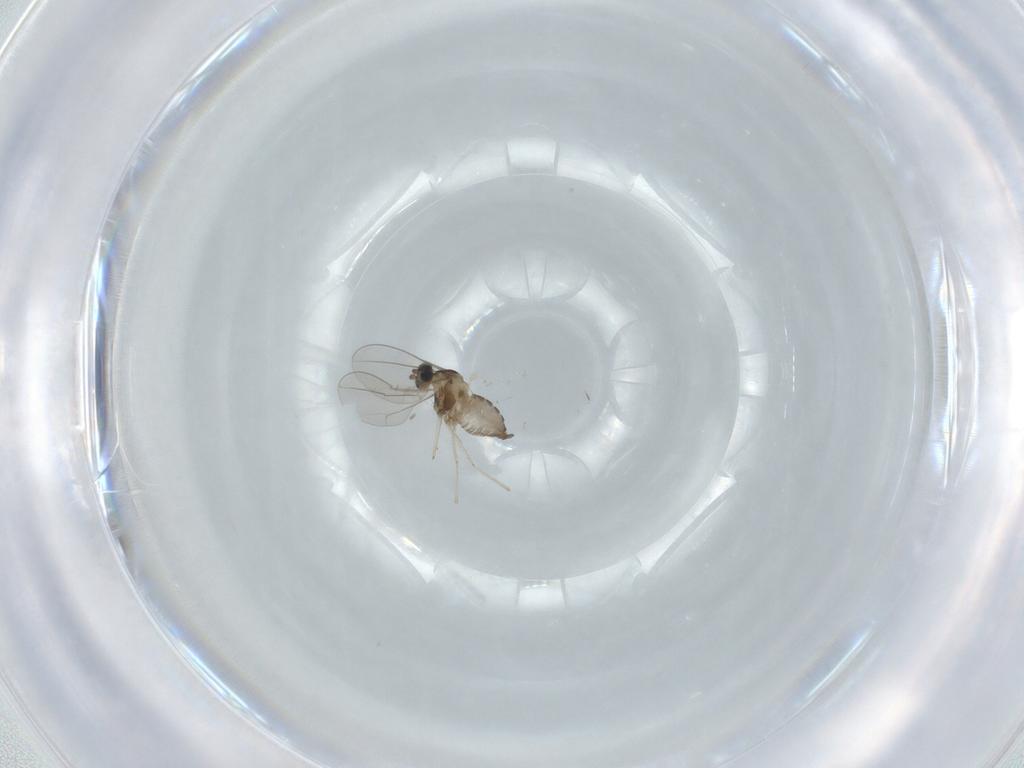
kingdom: Animalia
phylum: Arthropoda
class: Insecta
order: Diptera
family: Cecidomyiidae
